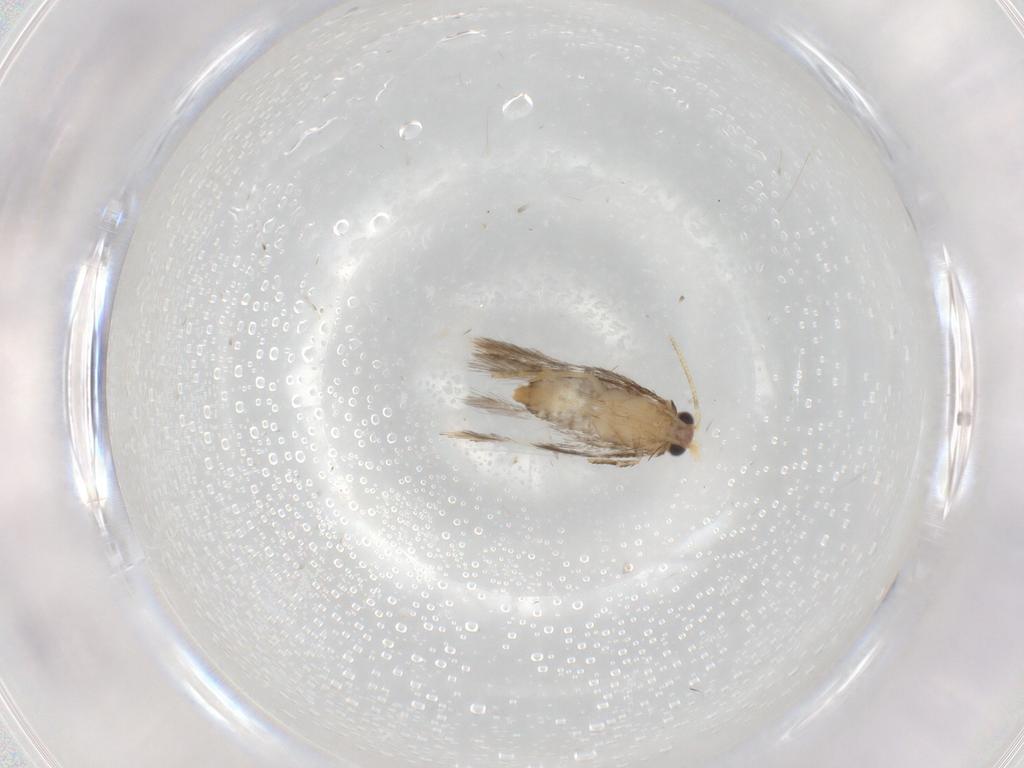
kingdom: Animalia
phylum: Arthropoda
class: Insecta
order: Lepidoptera
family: Nepticulidae
